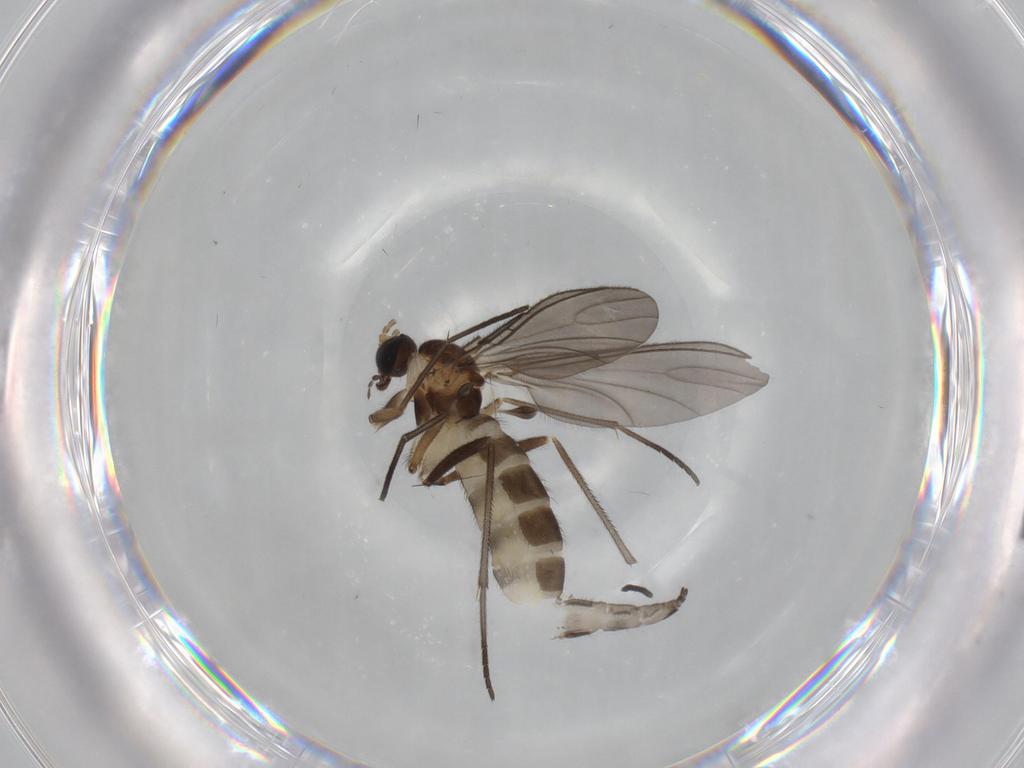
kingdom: Animalia
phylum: Arthropoda
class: Insecta
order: Diptera
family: Sciaridae
